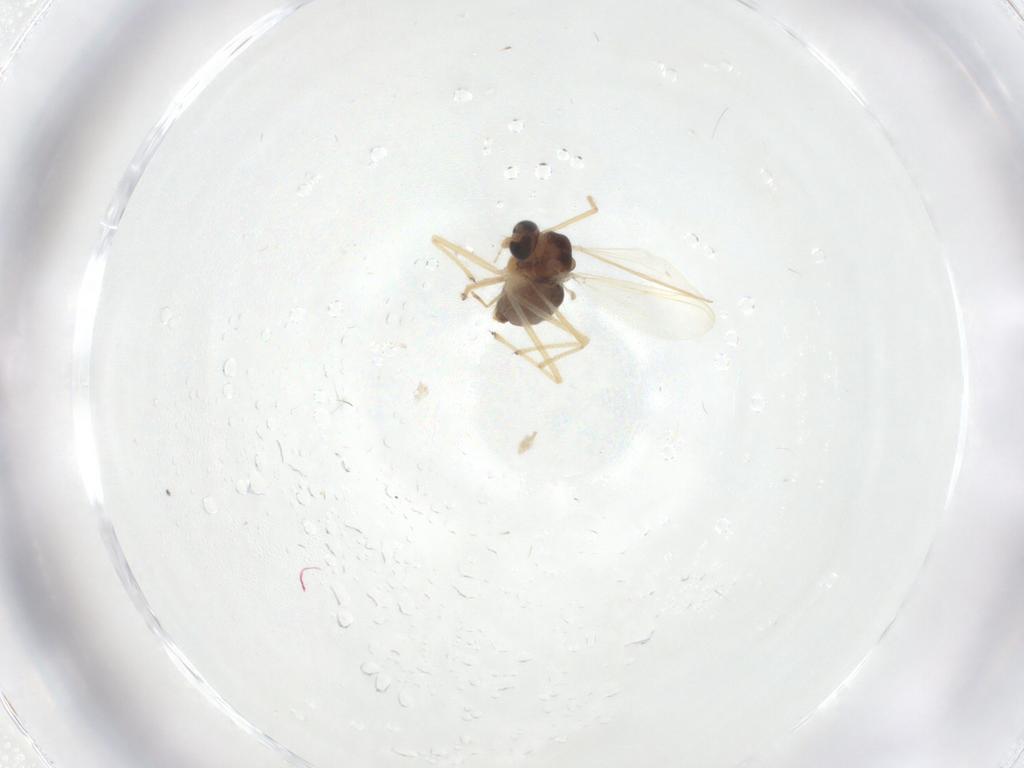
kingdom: Animalia
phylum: Arthropoda
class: Insecta
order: Diptera
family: Chironomidae
